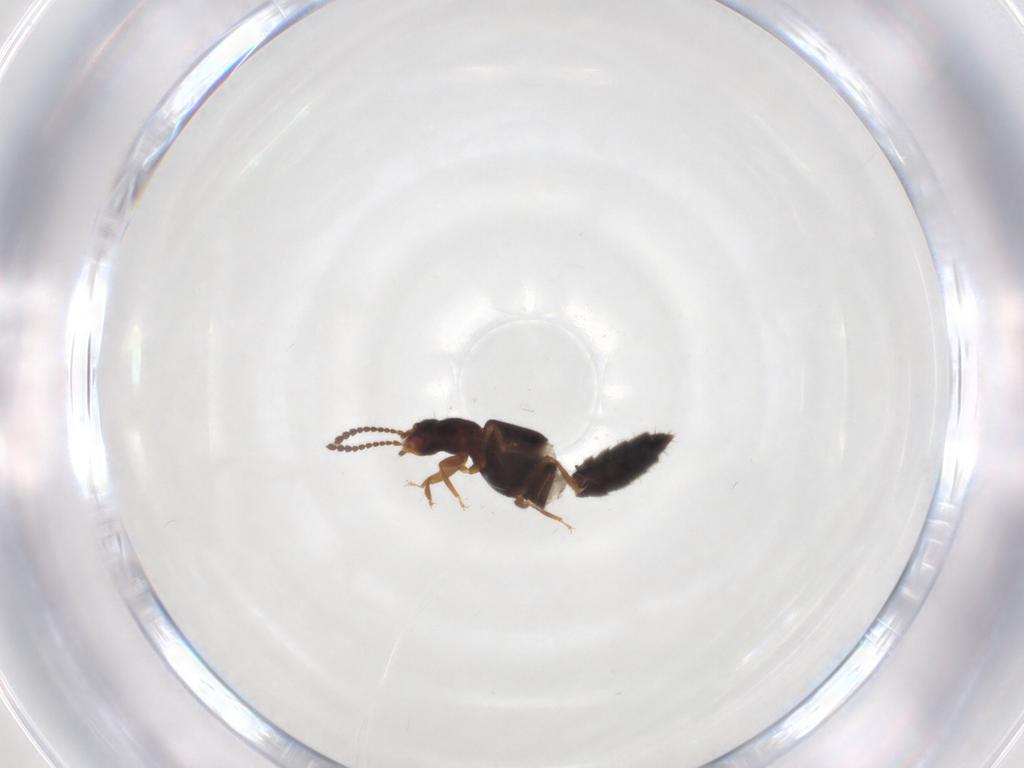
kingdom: Animalia
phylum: Arthropoda
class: Insecta
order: Coleoptera
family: Staphylinidae
